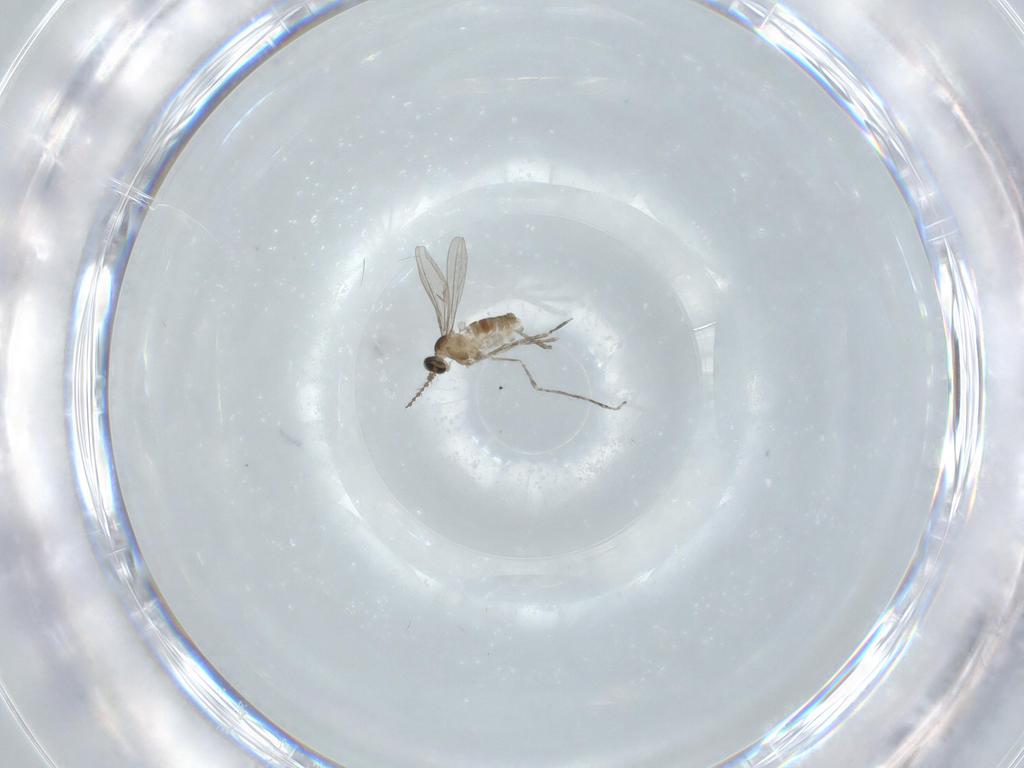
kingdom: Animalia
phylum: Arthropoda
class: Insecta
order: Diptera
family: Cecidomyiidae
